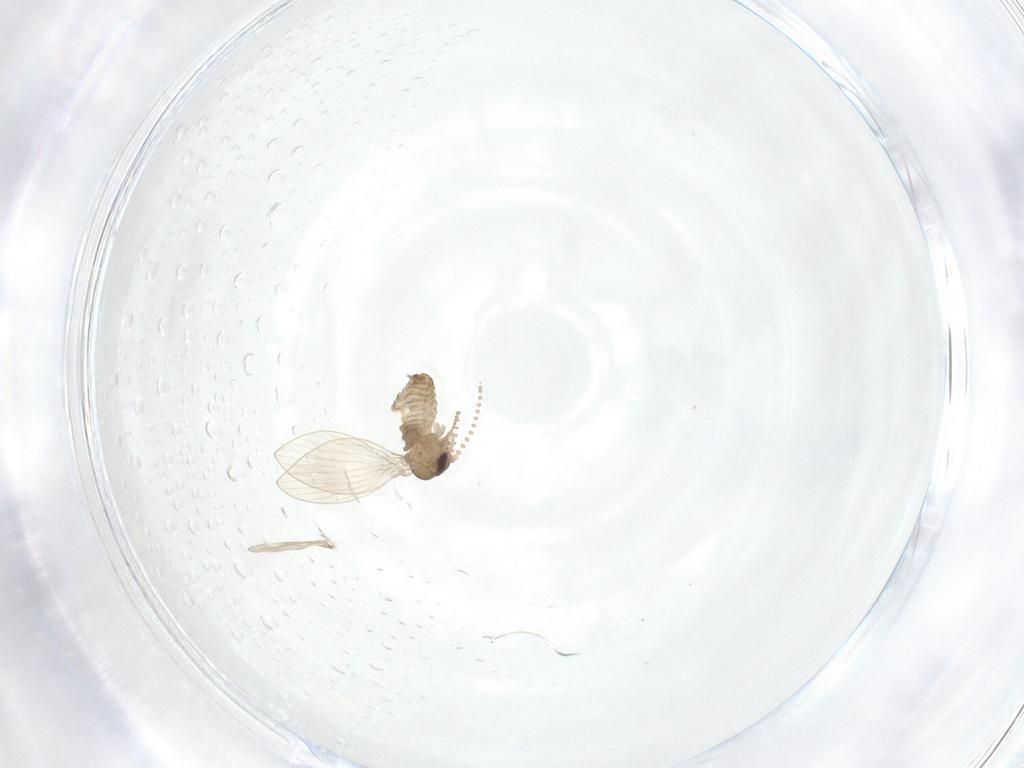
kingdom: Animalia
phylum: Arthropoda
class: Insecta
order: Diptera
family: Psychodidae
